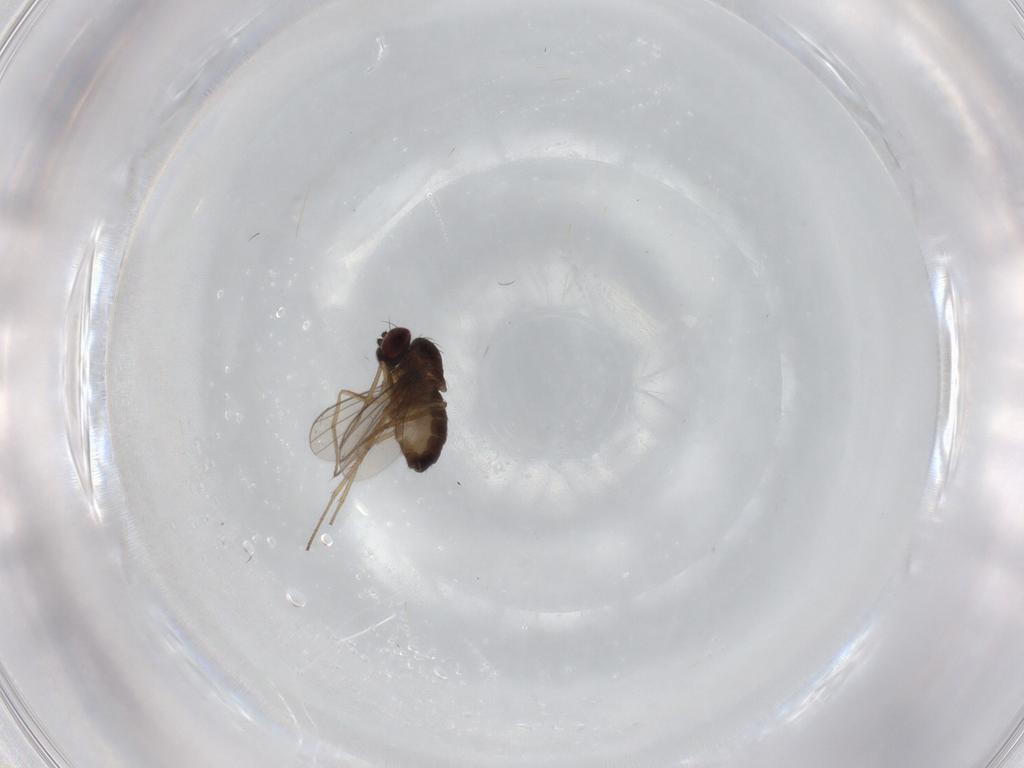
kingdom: Animalia
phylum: Arthropoda
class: Insecta
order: Diptera
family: Dolichopodidae
